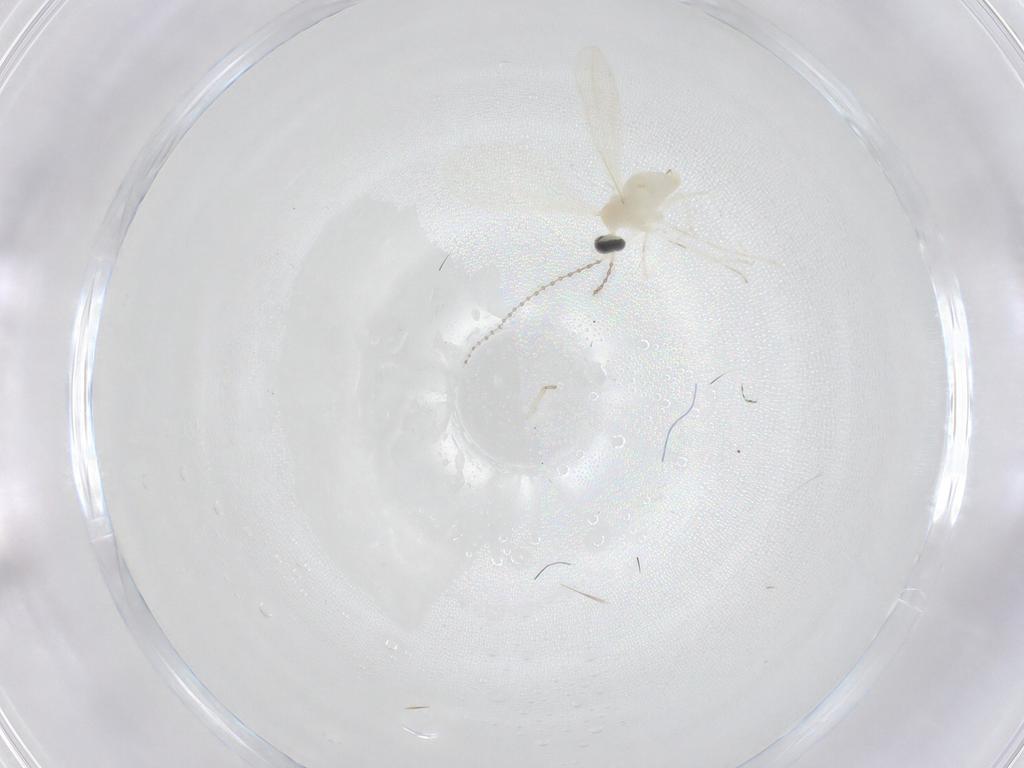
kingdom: Animalia
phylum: Arthropoda
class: Insecta
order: Diptera
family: Cecidomyiidae
